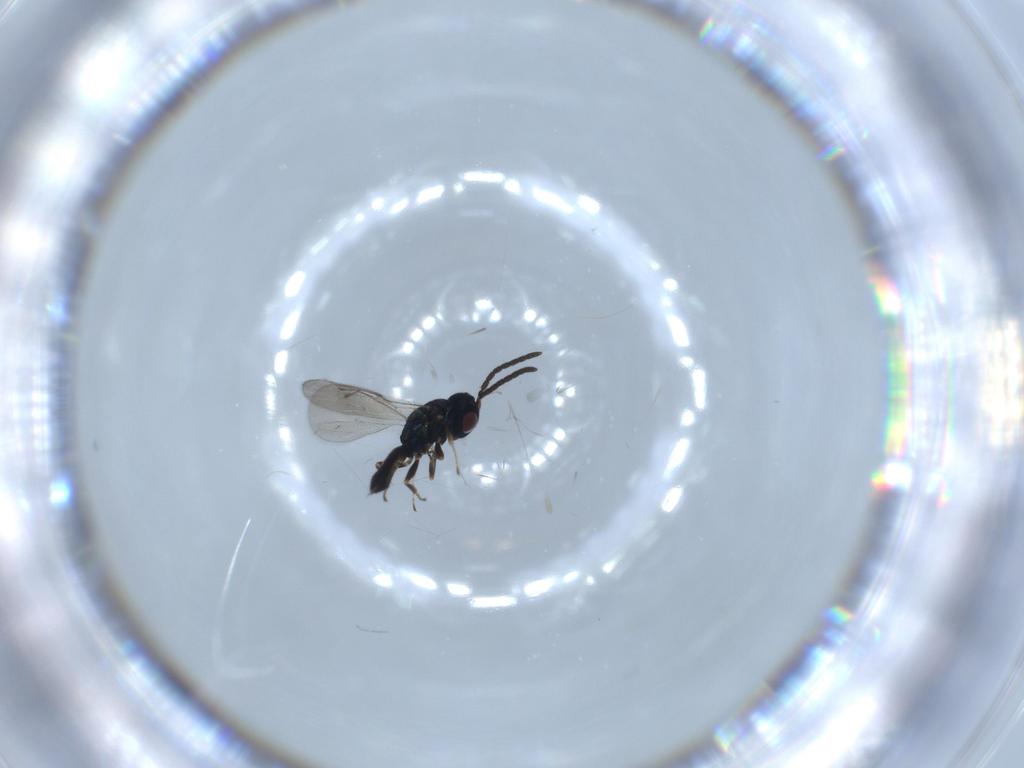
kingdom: Animalia
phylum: Arthropoda
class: Insecta
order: Hymenoptera
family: Pteromalidae
